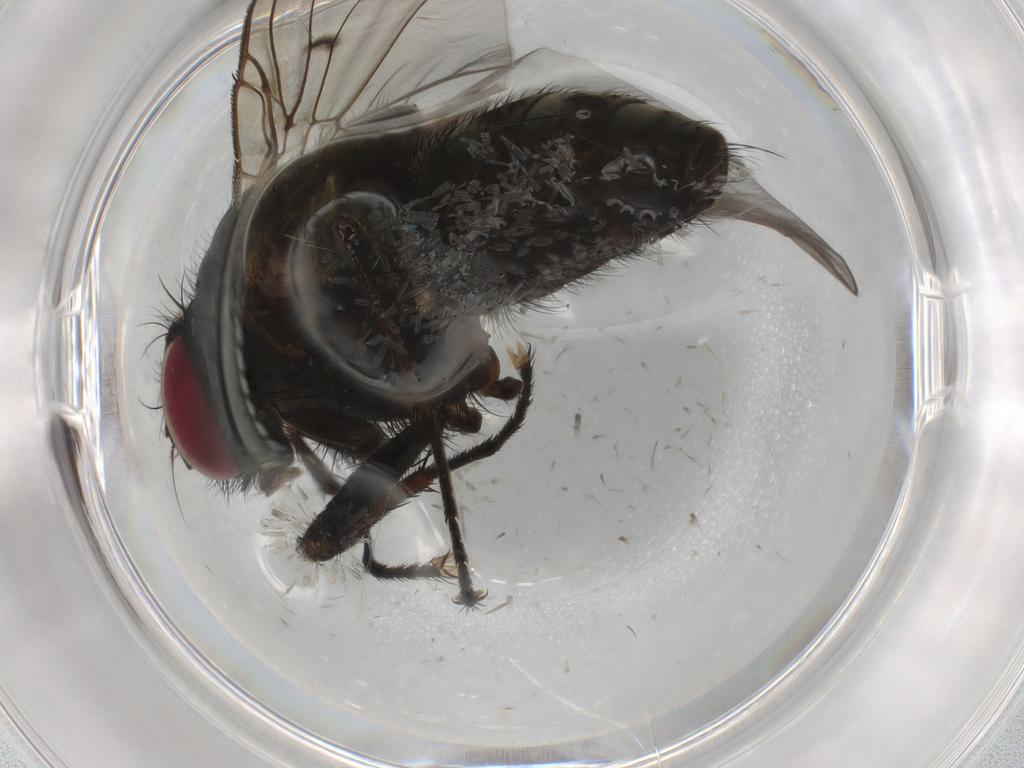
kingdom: Animalia
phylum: Arthropoda
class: Insecta
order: Diptera
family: Muscidae
